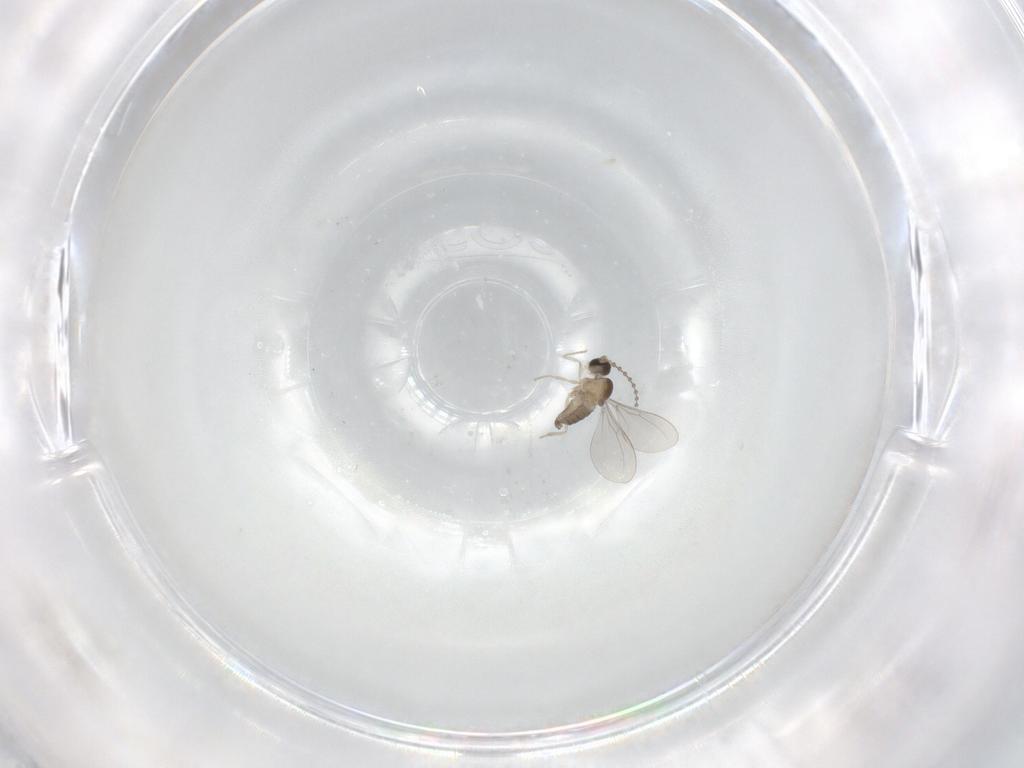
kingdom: Animalia
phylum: Arthropoda
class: Insecta
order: Diptera
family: Cecidomyiidae
